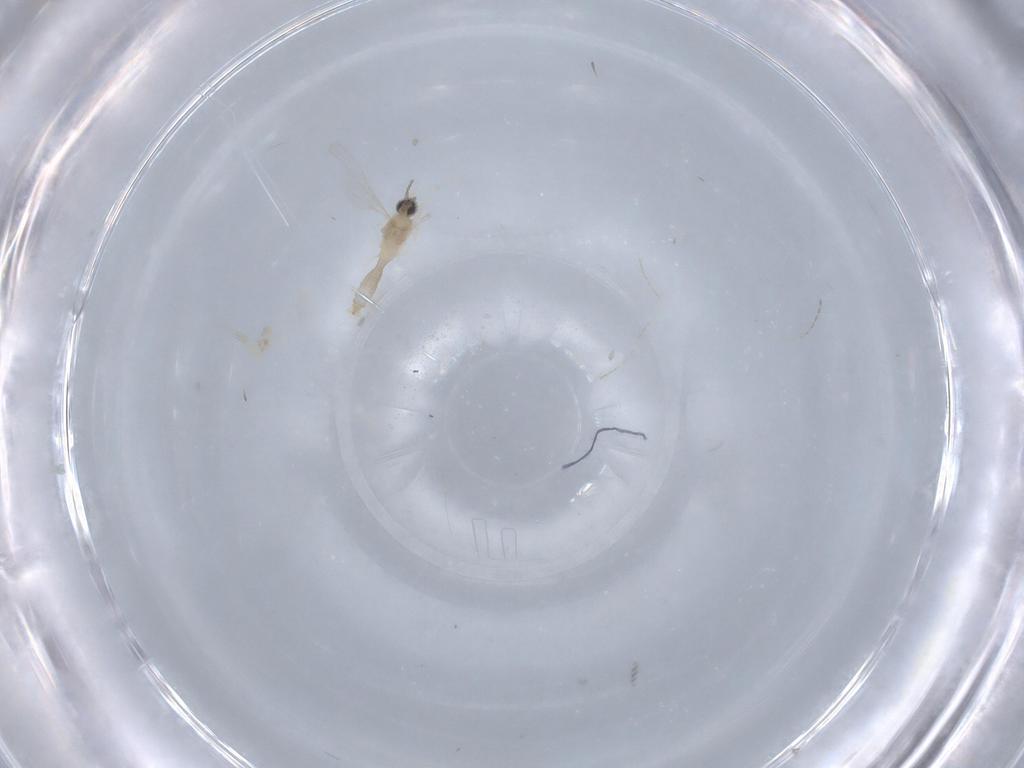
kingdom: Animalia
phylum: Arthropoda
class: Insecta
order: Diptera
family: Cecidomyiidae
